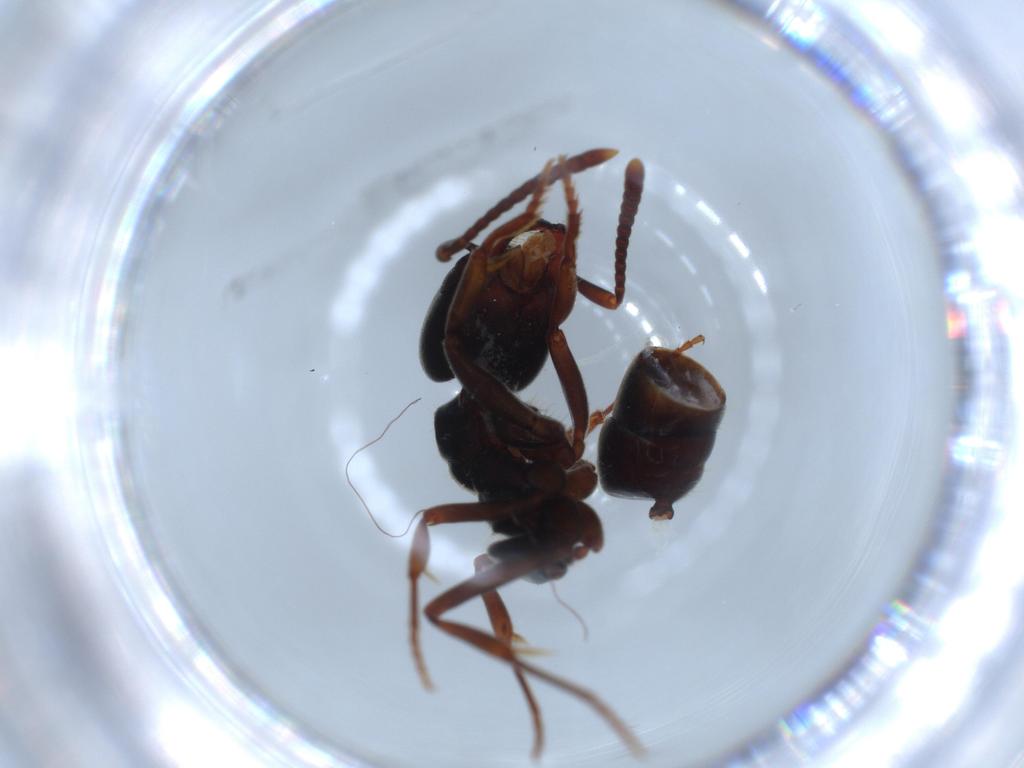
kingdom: Animalia
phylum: Arthropoda
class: Insecta
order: Hymenoptera
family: Formicidae
